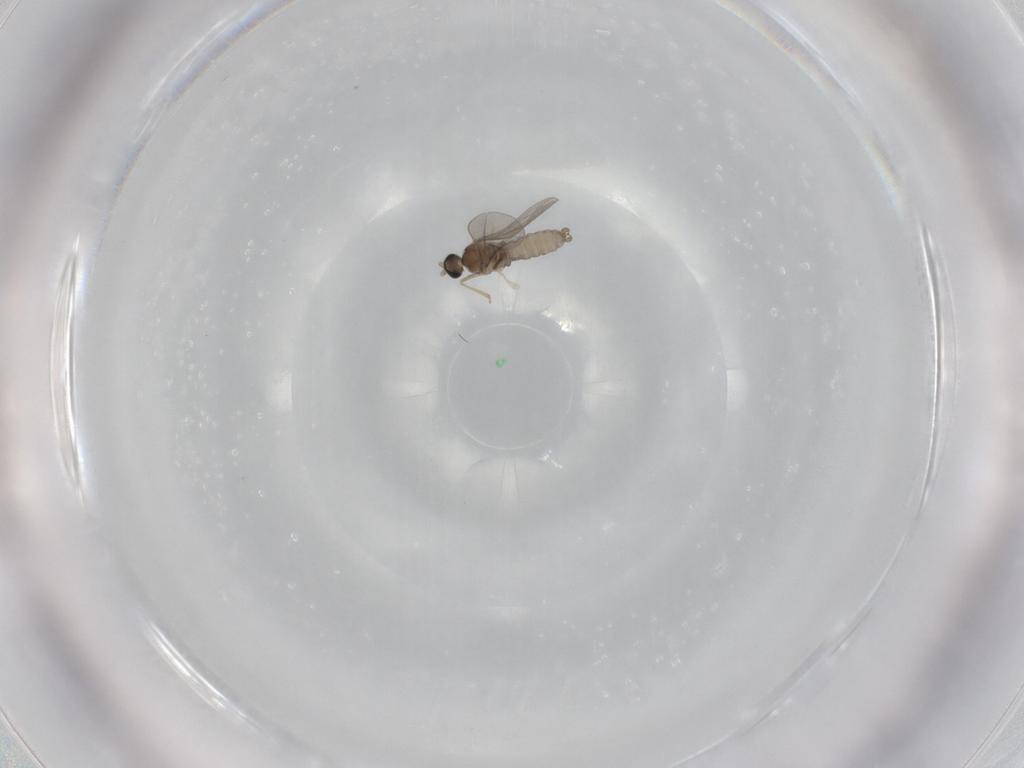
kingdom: Animalia
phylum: Arthropoda
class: Insecta
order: Diptera
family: Cecidomyiidae
